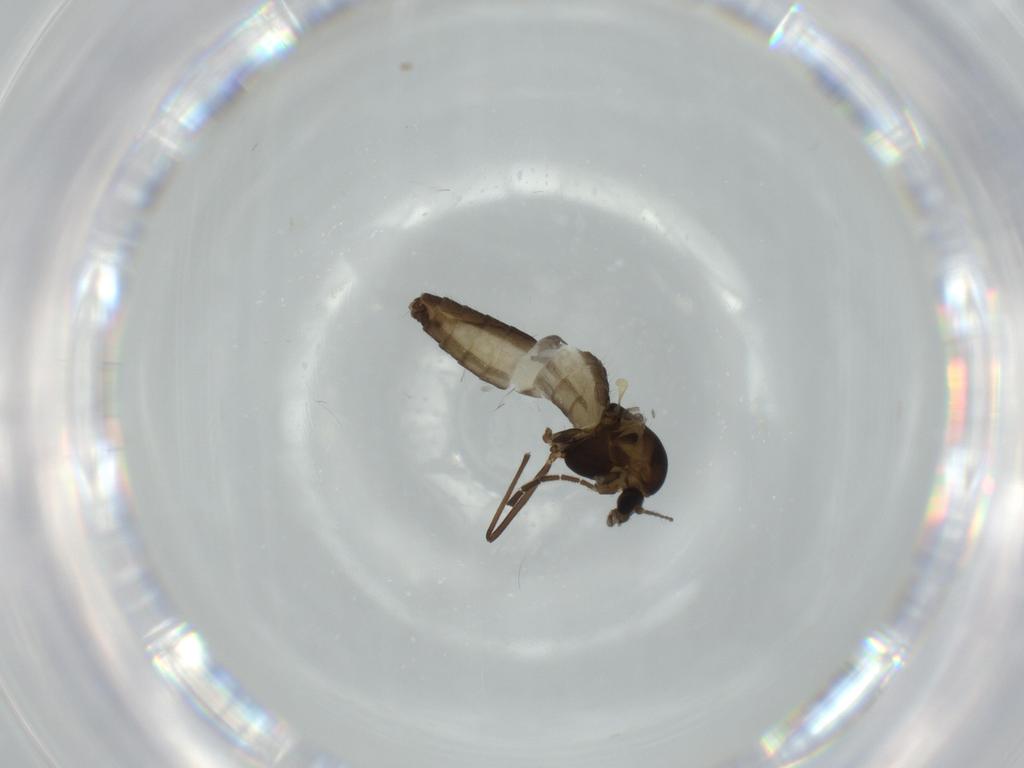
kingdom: Animalia
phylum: Arthropoda
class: Insecta
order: Diptera
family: Chironomidae
